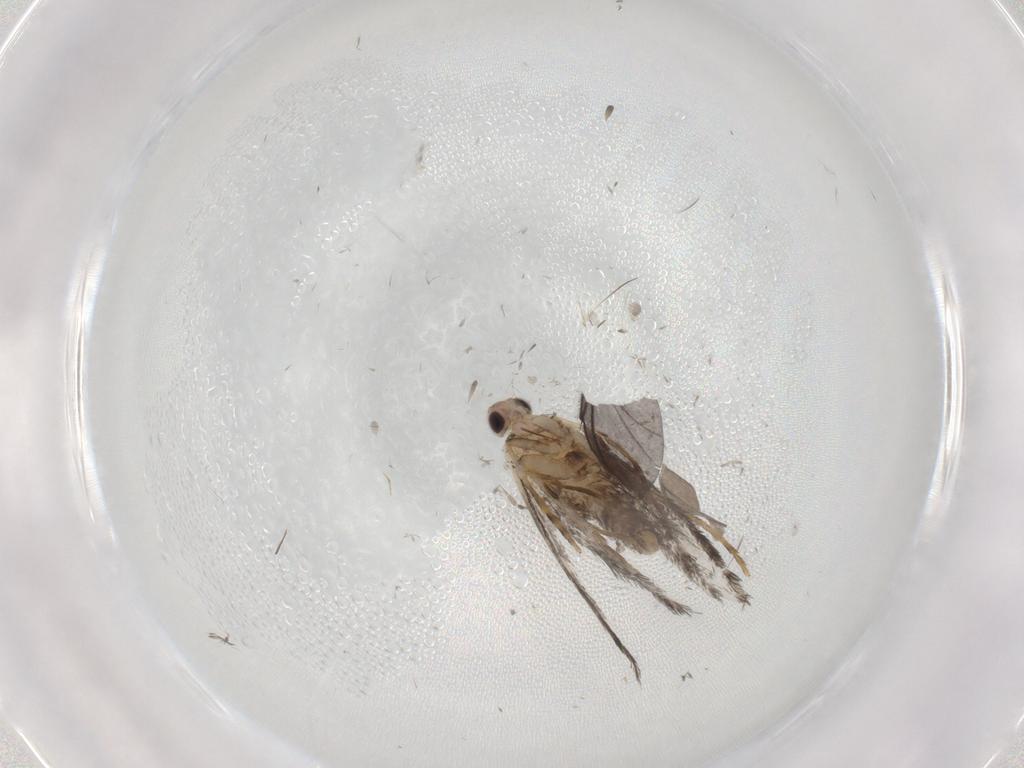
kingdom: Animalia
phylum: Arthropoda
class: Insecta
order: Lepidoptera
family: Tineidae
